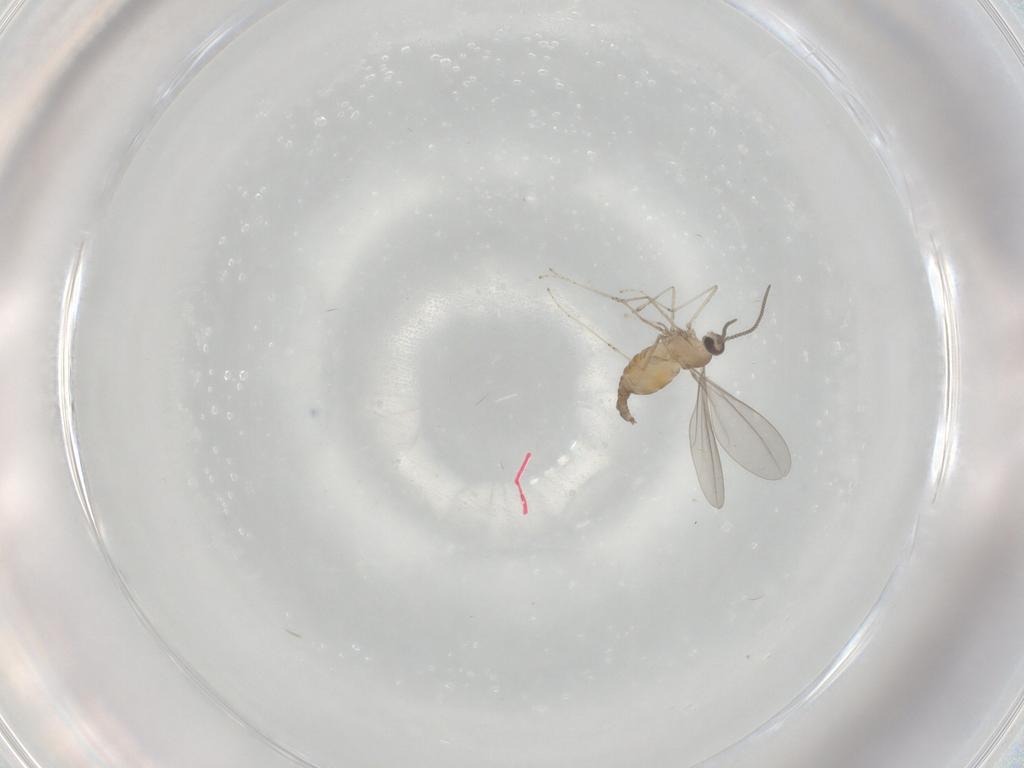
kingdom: Animalia
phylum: Arthropoda
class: Insecta
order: Diptera
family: Cecidomyiidae
